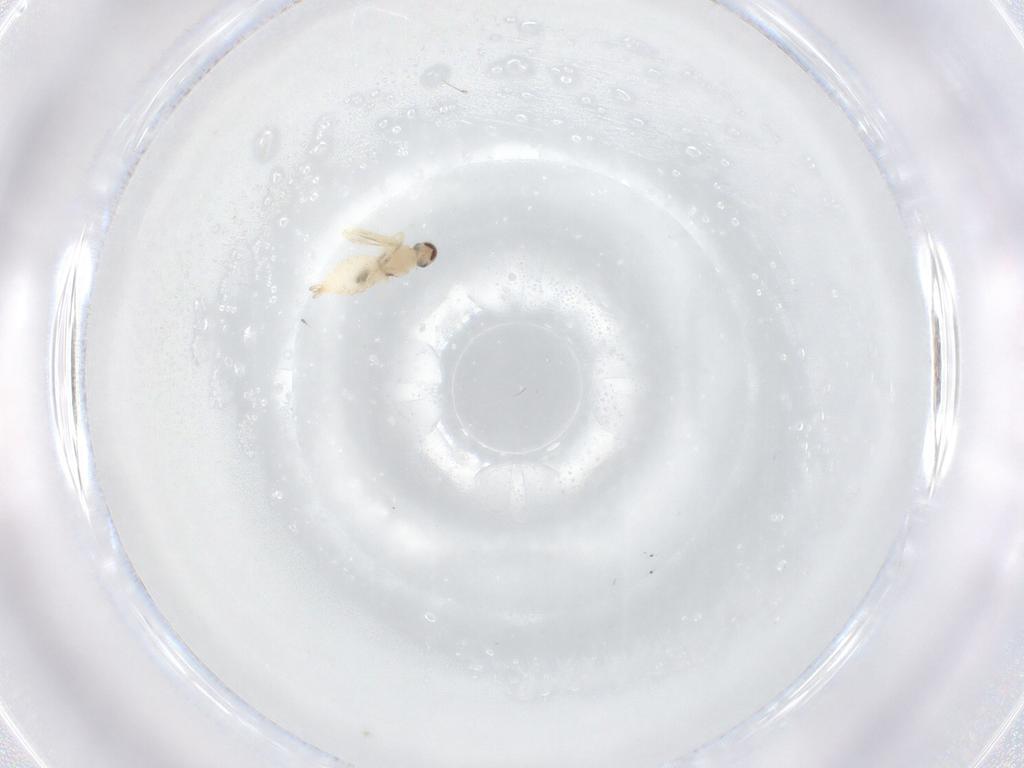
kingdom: Animalia
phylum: Arthropoda
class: Insecta
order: Diptera
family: Cecidomyiidae
